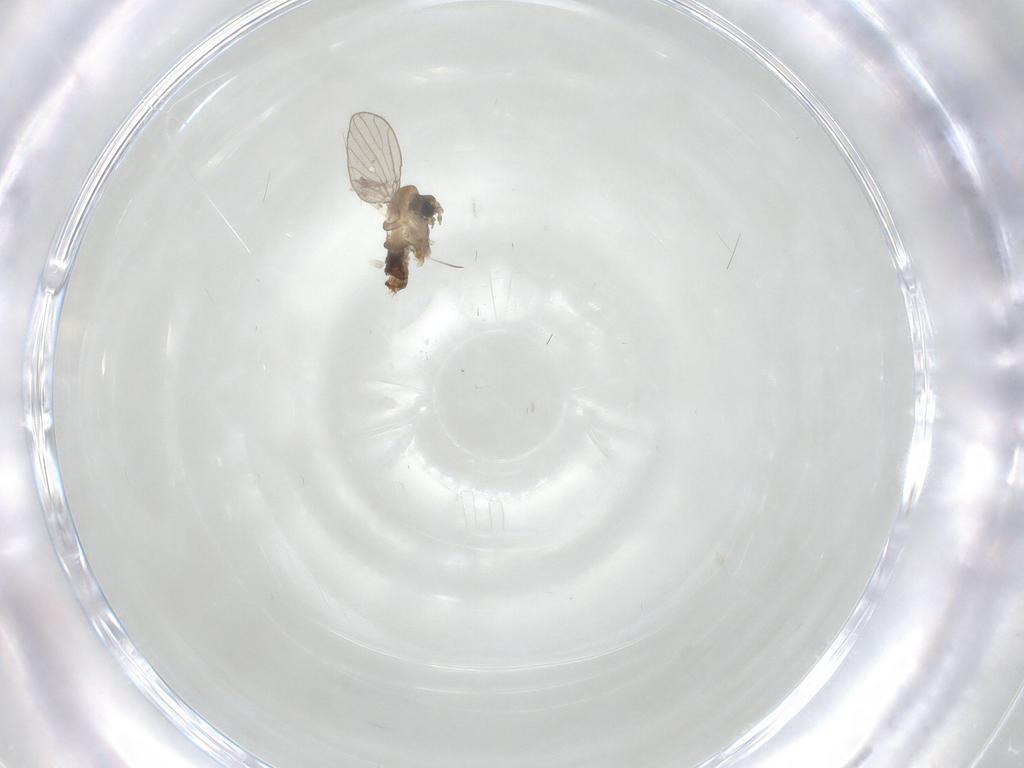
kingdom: Animalia
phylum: Arthropoda
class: Insecta
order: Diptera
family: Psychodidae
